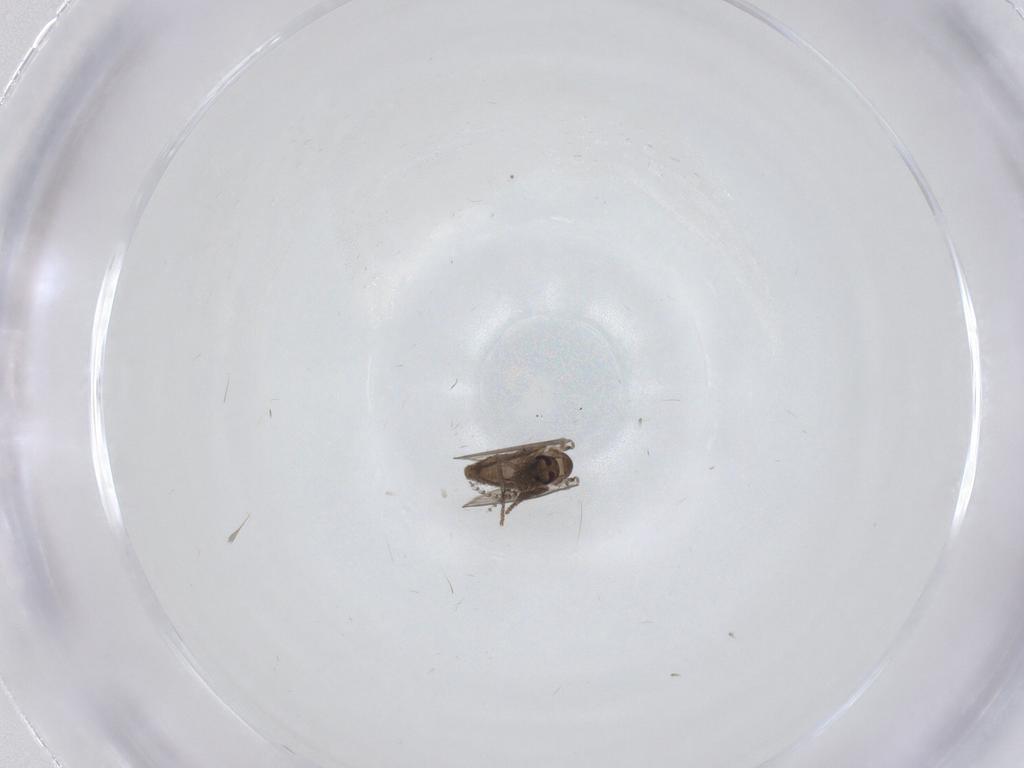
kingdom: Animalia
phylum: Arthropoda
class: Insecta
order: Diptera
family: Psychodidae
